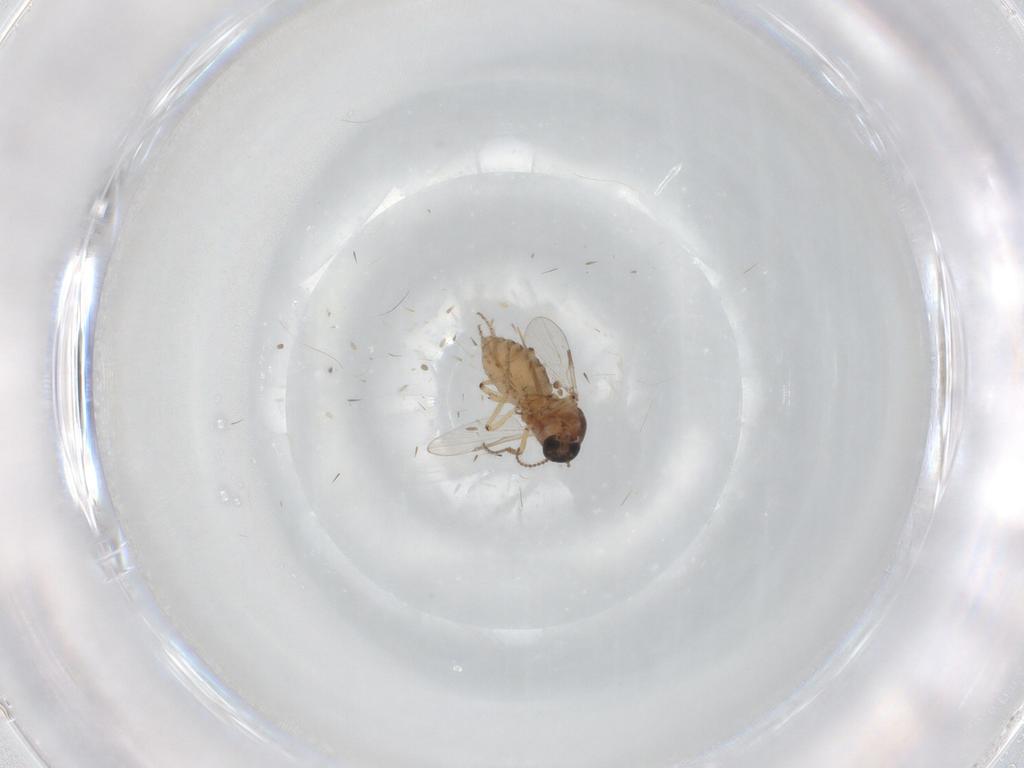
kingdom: Animalia
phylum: Arthropoda
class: Insecta
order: Diptera
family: Ceratopogonidae
